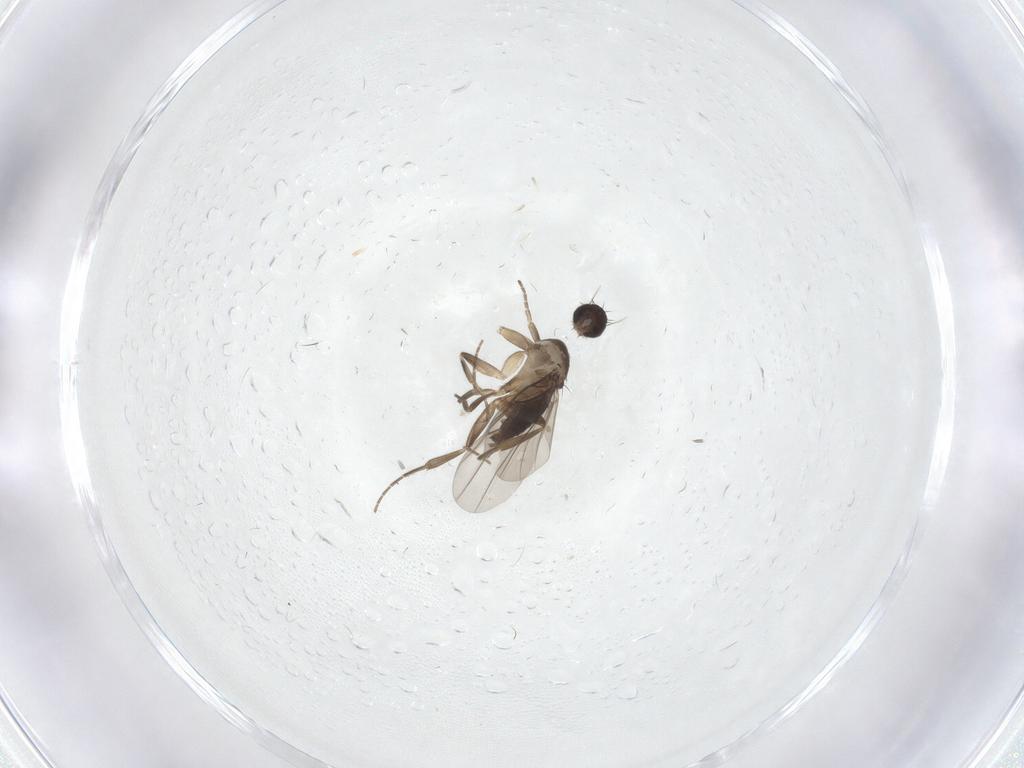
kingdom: Animalia
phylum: Arthropoda
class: Insecta
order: Diptera
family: Phoridae
